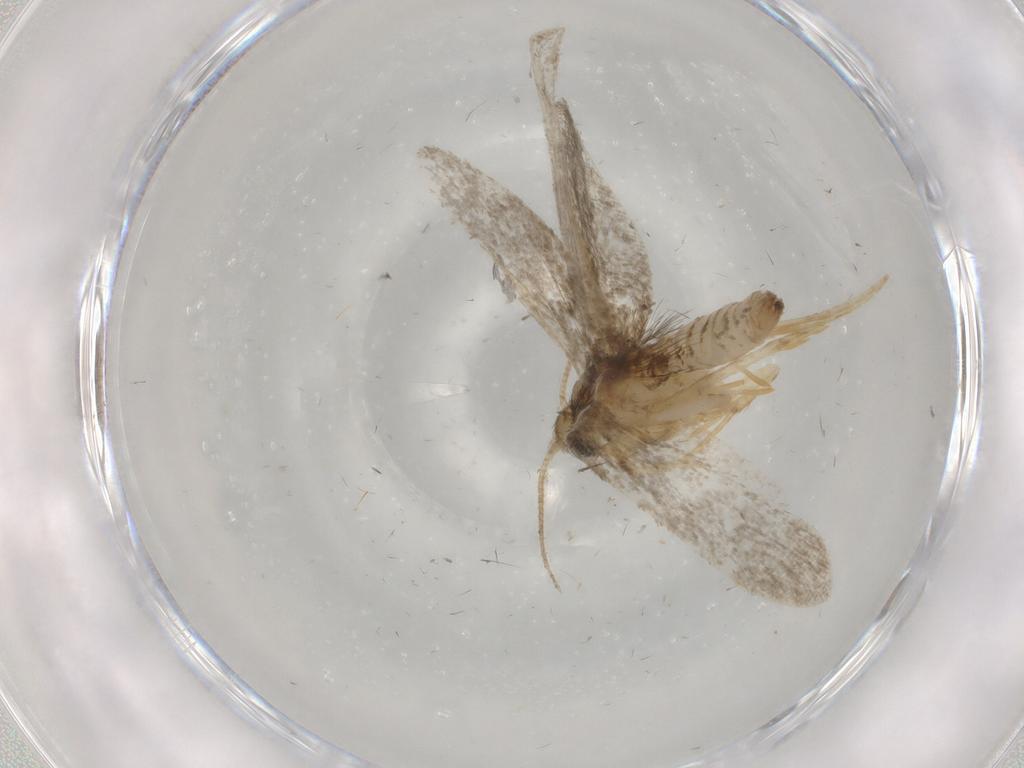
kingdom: Animalia
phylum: Arthropoda
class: Insecta
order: Lepidoptera
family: Psychidae
